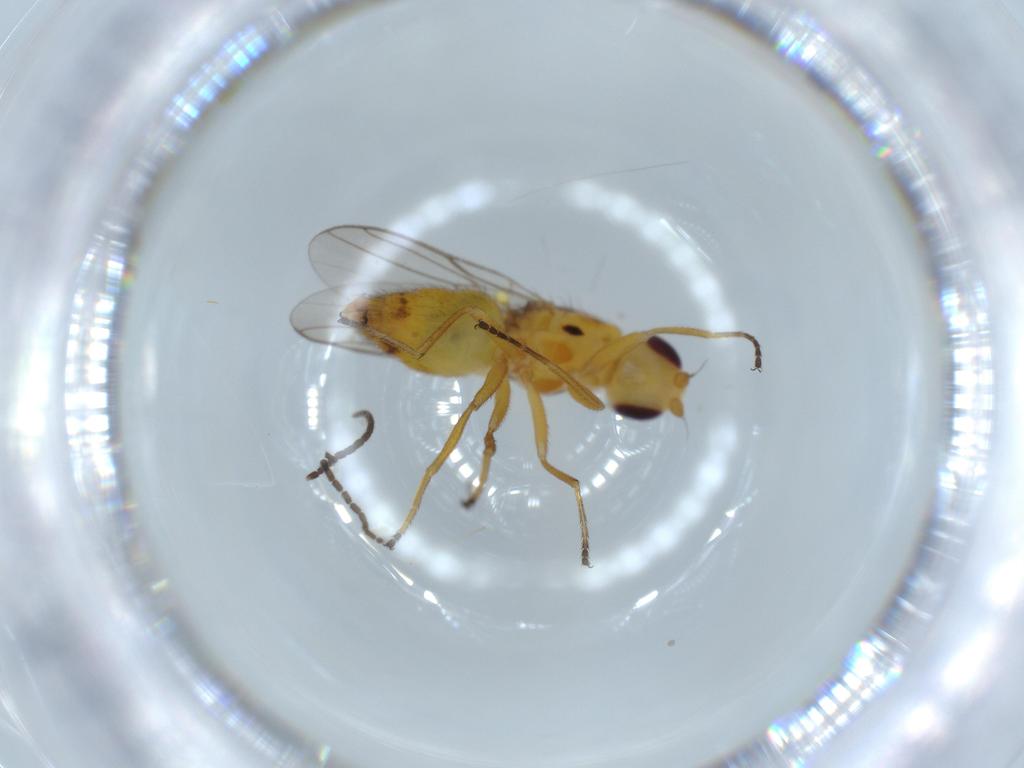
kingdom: Animalia
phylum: Arthropoda
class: Insecta
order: Diptera
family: Chloropidae
